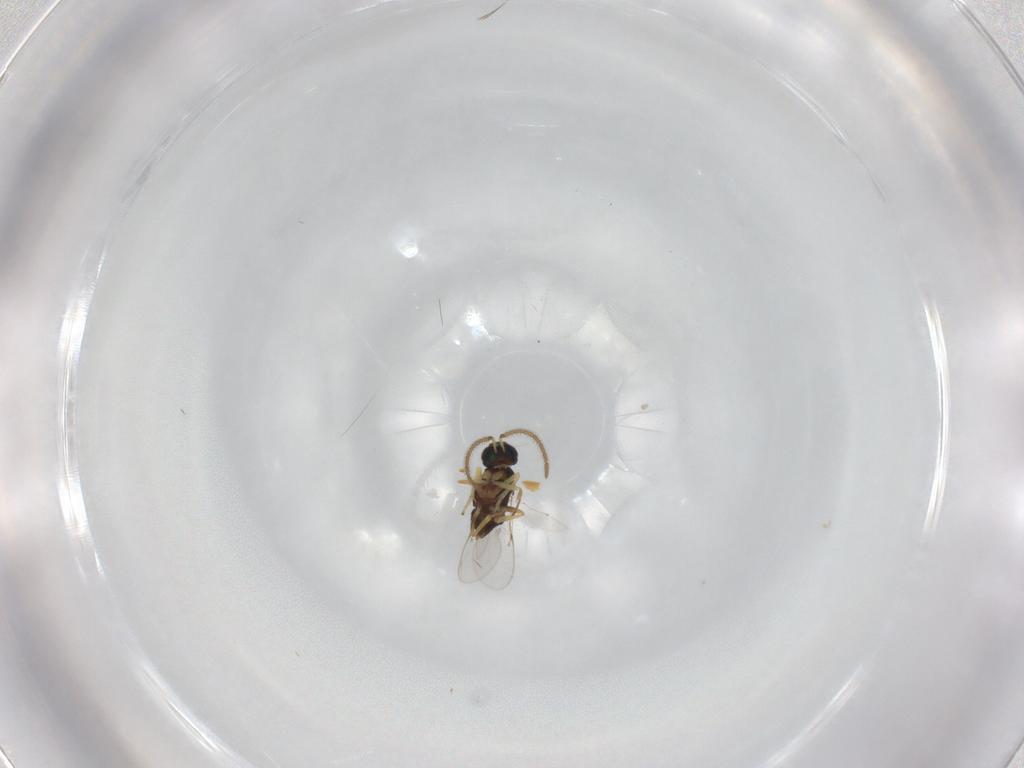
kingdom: Animalia
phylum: Arthropoda
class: Insecta
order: Hymenoptera
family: Encyrtidae
